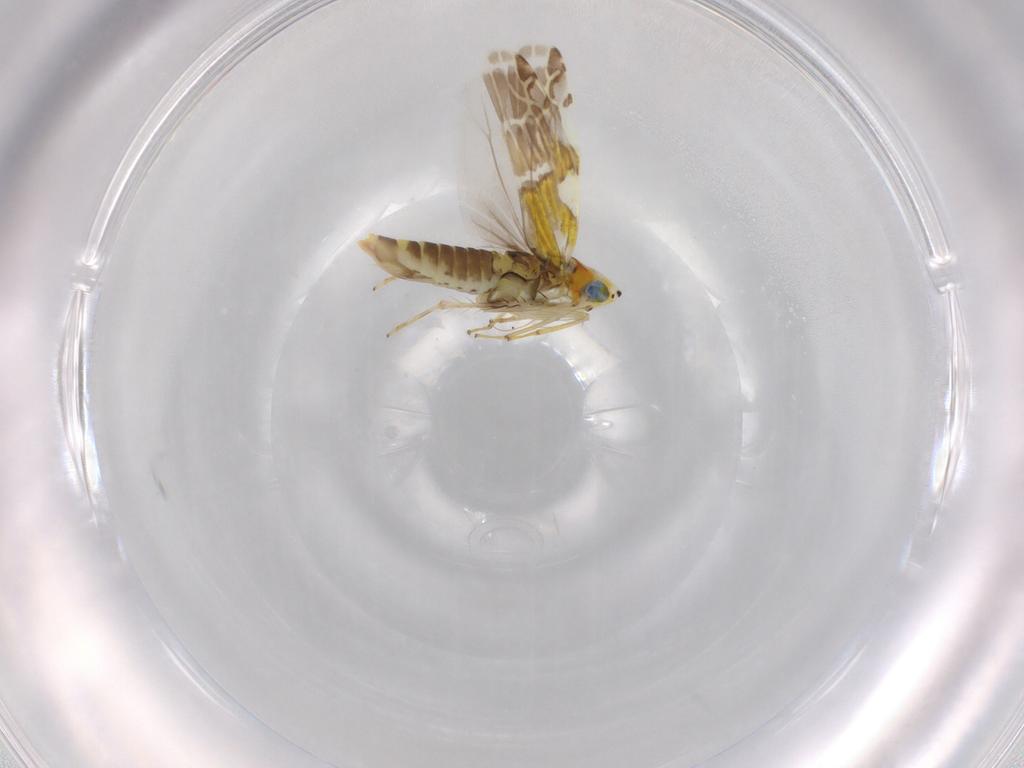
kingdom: Animalia
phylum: Arthropoda
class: Insecta
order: Hemiptera
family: Cicadellidae
